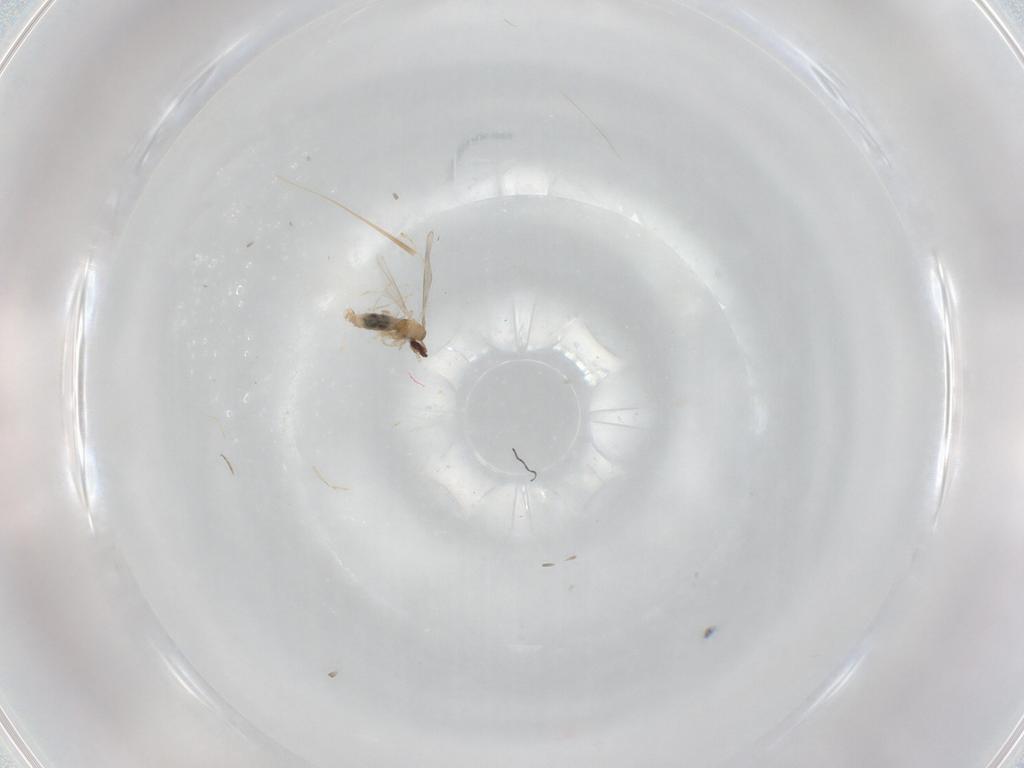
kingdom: Animalia
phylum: Arthropoda
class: Insecta
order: Diptera
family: Cecidomyiidae
